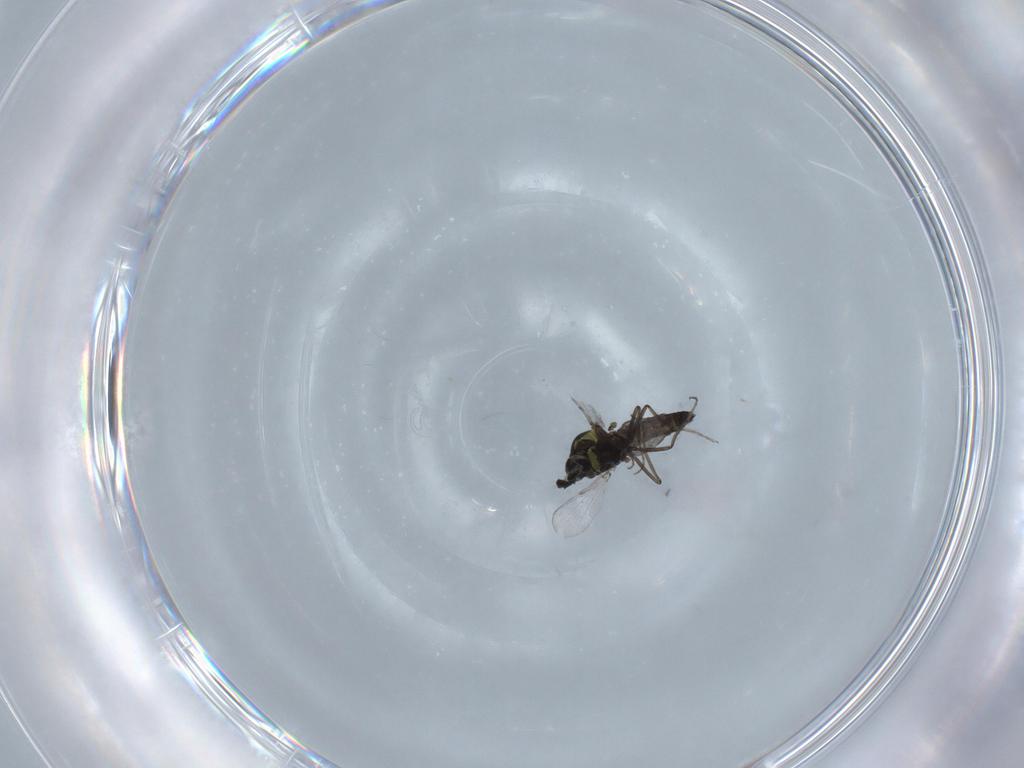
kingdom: Animalia
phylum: Arthropoda
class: Insecta
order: Diptera
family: Ceratopogonidae
